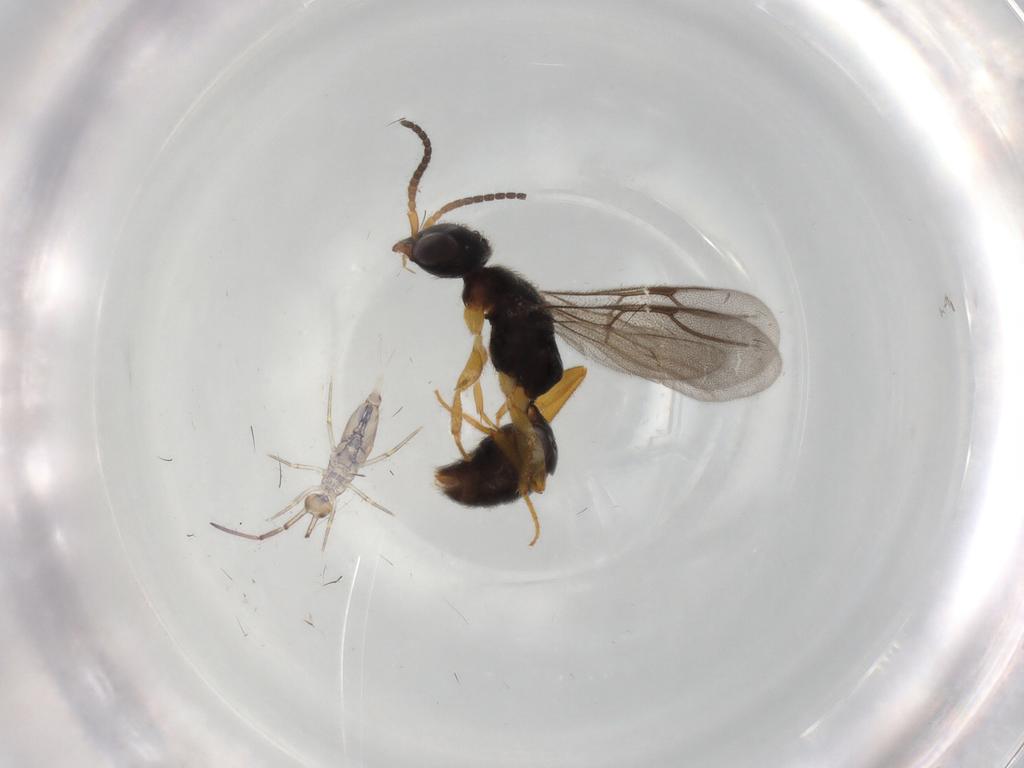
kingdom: Animalia
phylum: Arthropoda
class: Insecta
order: Hymenoptera
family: Bethylidae
